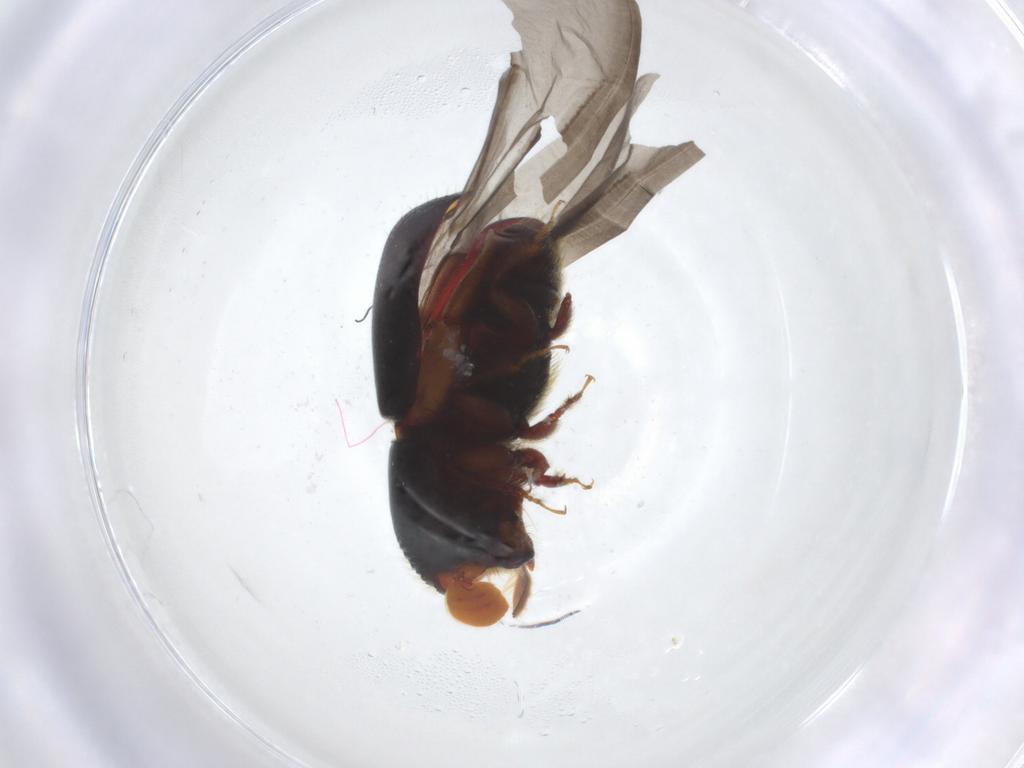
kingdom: Animalia
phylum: Arthropoda
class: Insecta
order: Coleoptera
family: Curculionidae
